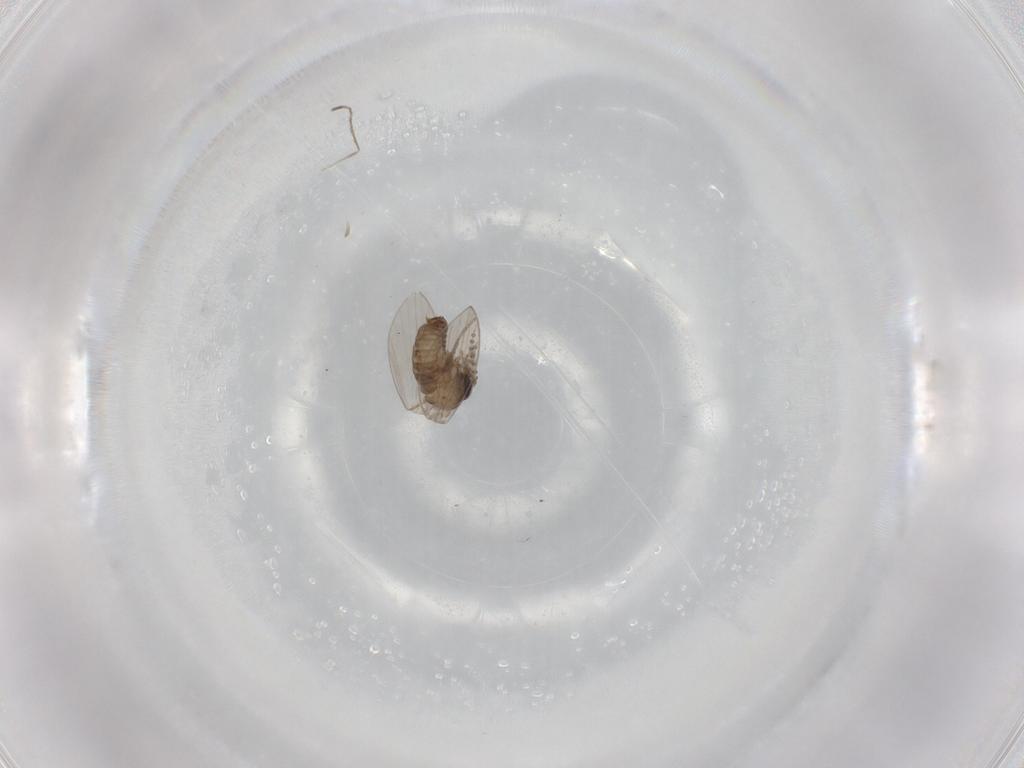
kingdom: Animalia
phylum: Arthropoda
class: Insecta
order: Diptera
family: Cecidomyiidae
